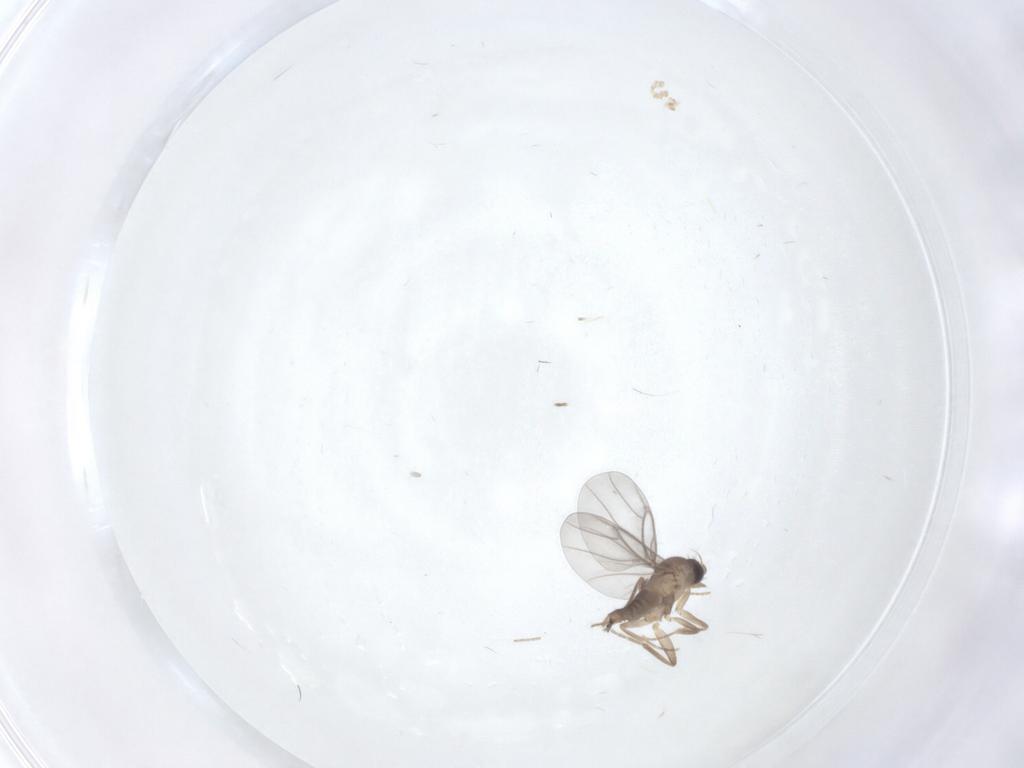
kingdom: Animalia
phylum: Arthropoda
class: Insecta
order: Diptera
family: Psychodidae
